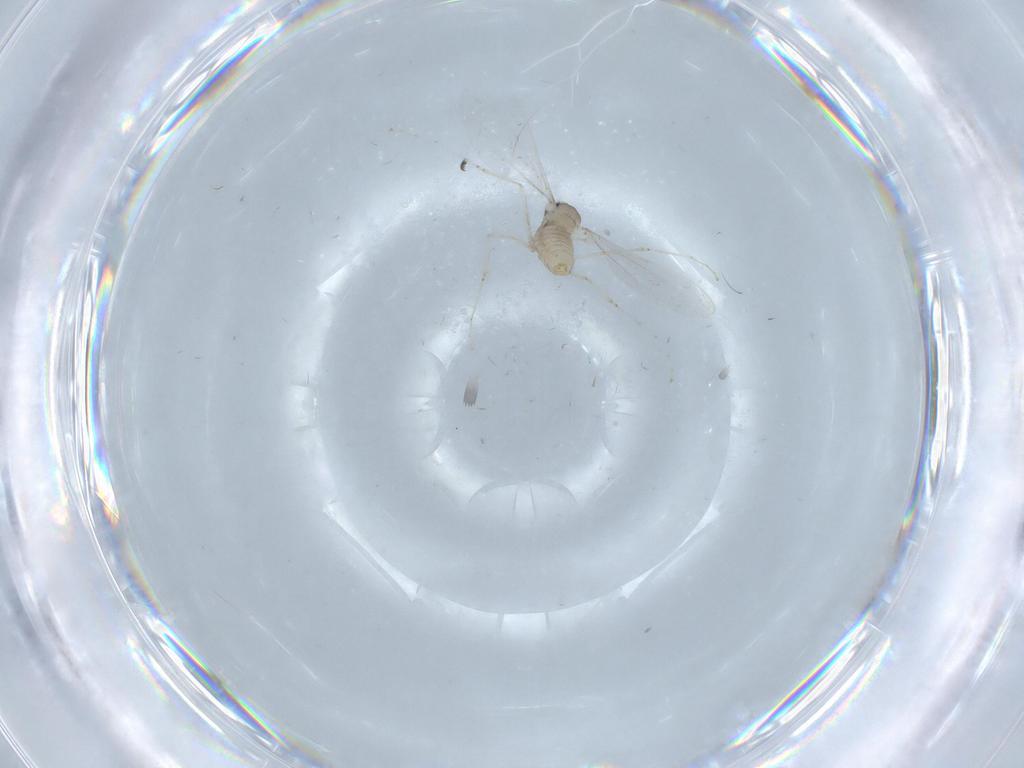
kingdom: Animalia
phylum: Arthropoda
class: Insecta
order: Diptera
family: Cecidomyiidae
